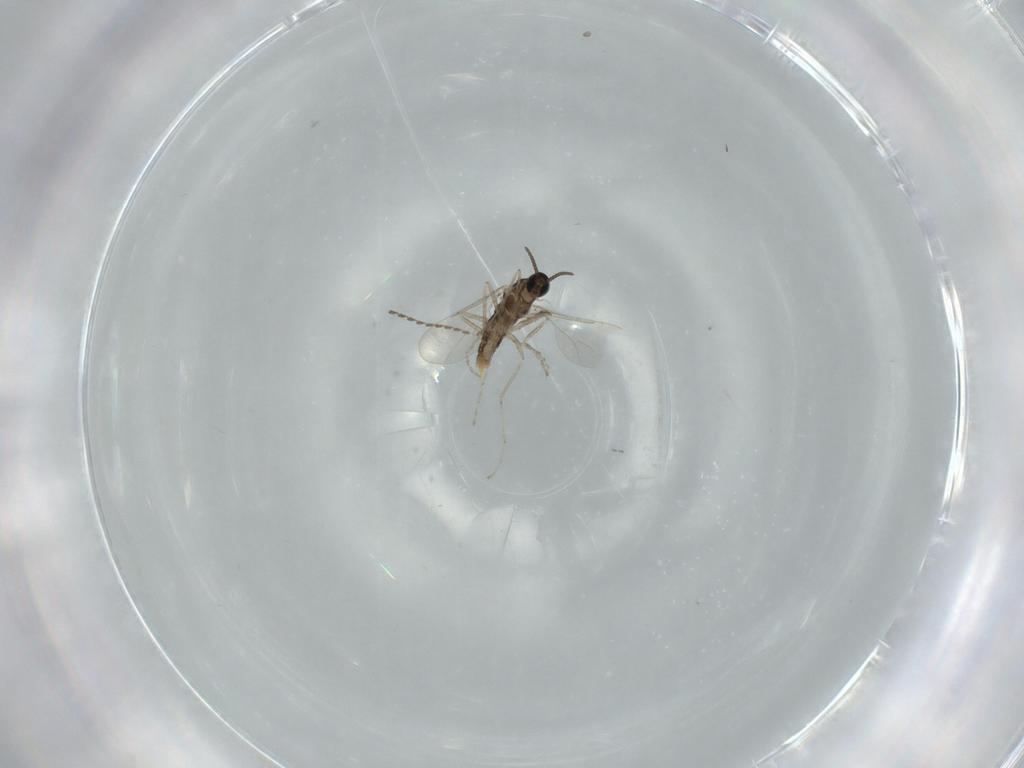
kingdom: Animalia
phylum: Arthropoda
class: Insecta
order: Diptera
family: Cecidomyiidae
